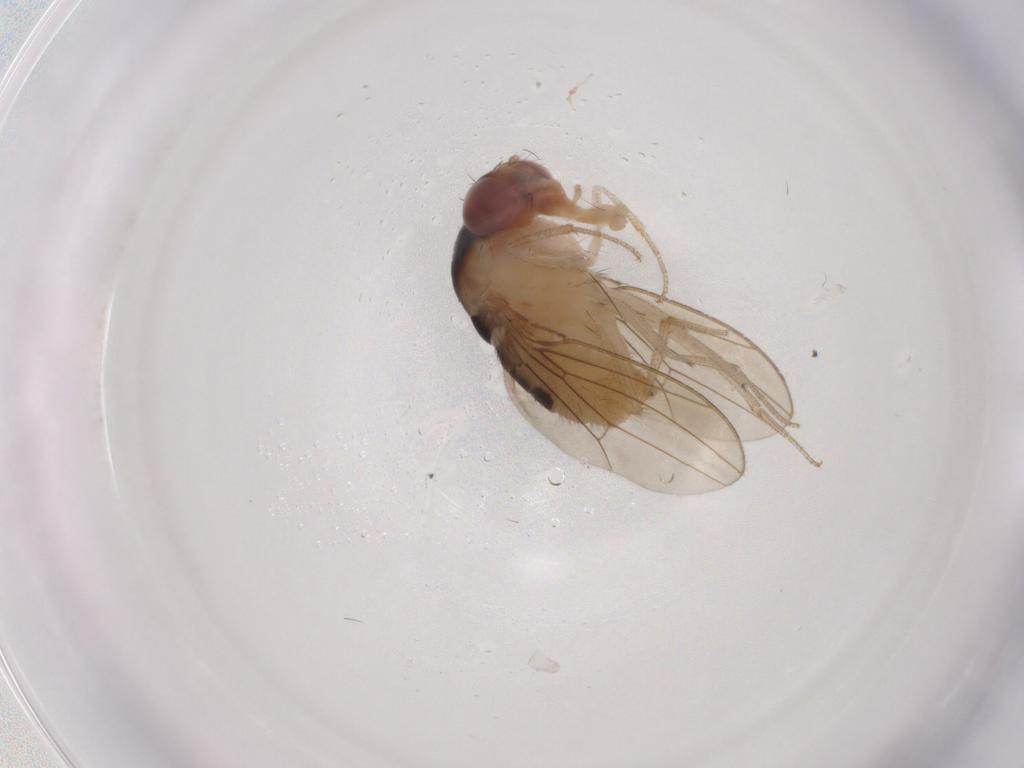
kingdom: Animalia
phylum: Arthropoda
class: Insecta
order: Diptera
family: Drosophilidae
